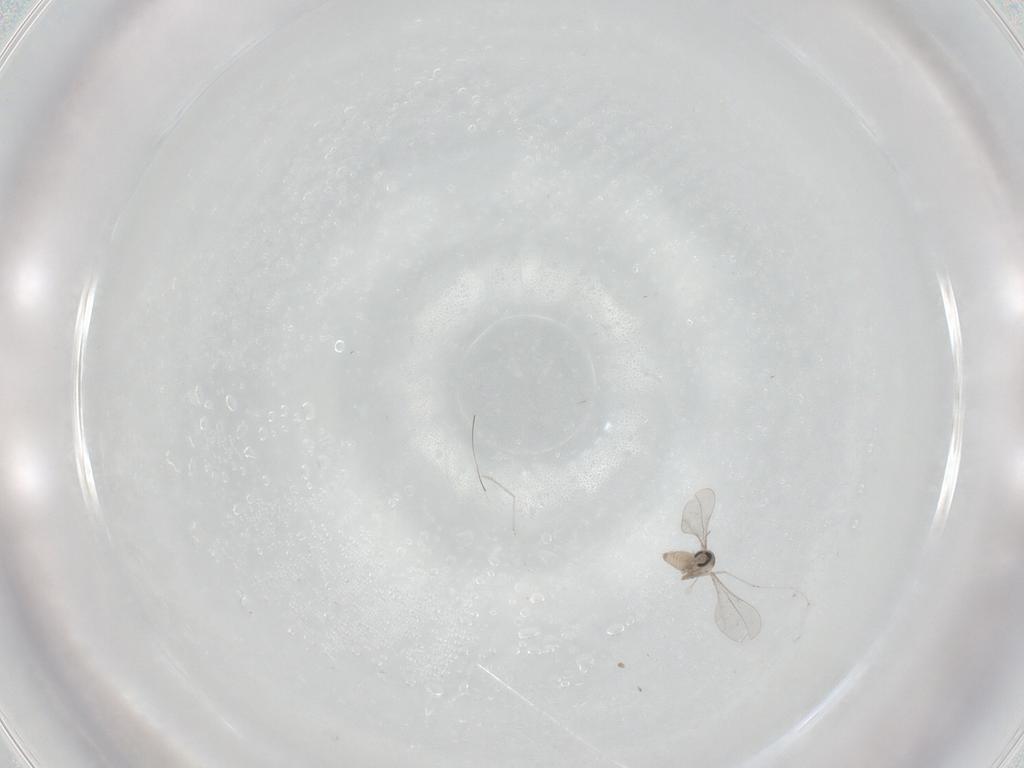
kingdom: Animalia
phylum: Arthropoda
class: Insecta
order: Diptera
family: Cecidomyiidae
